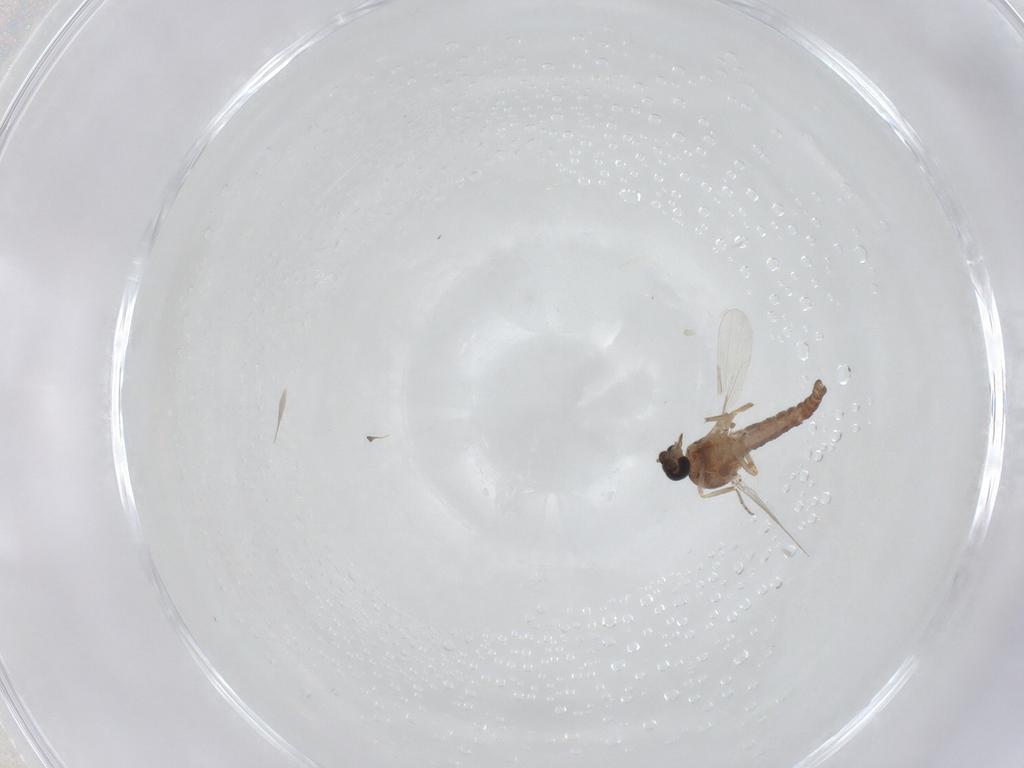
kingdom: Animalia
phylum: Arthropoda
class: Insecta
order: Diptera
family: Ceratopogonidae
